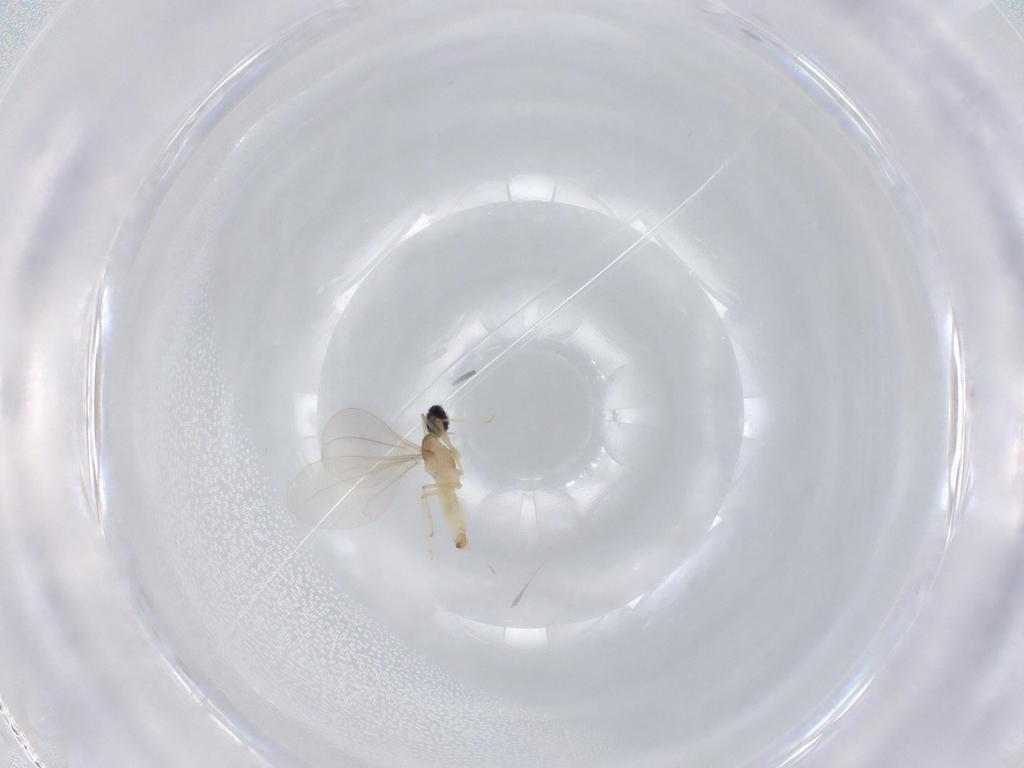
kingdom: Animalia
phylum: Arthropoda
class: Insecta
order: Diptera
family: Cecidomyiidae
